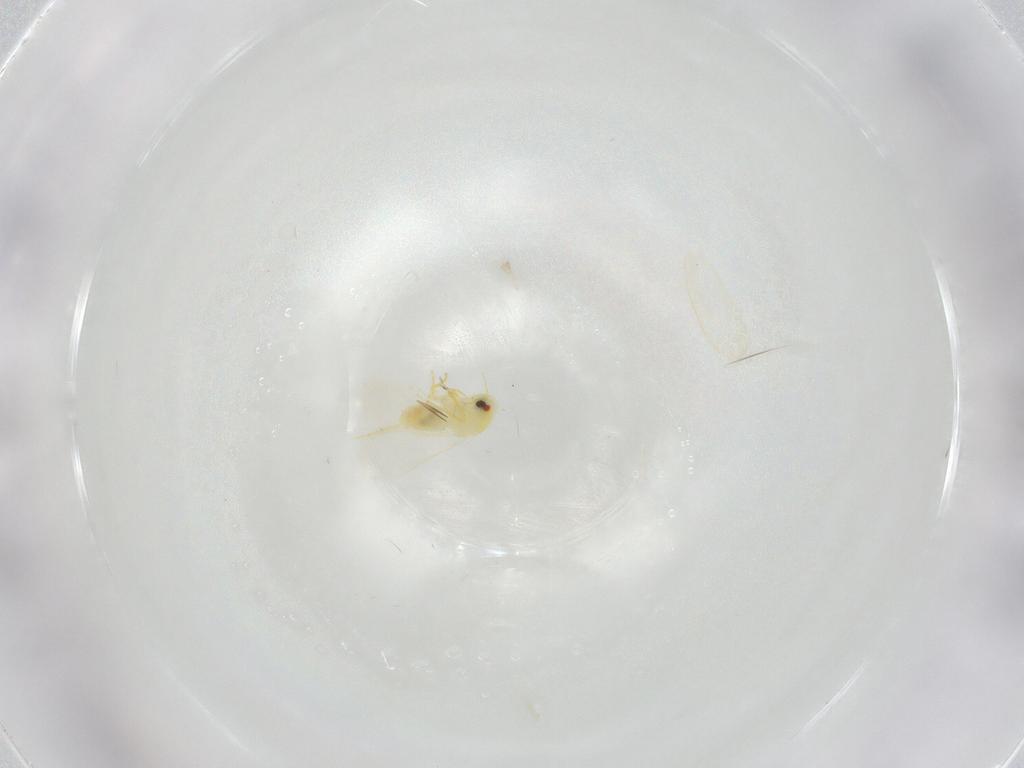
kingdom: Animalia
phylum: Arthropoda
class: Insecta
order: Hemiptera
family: Aleyrodidae
